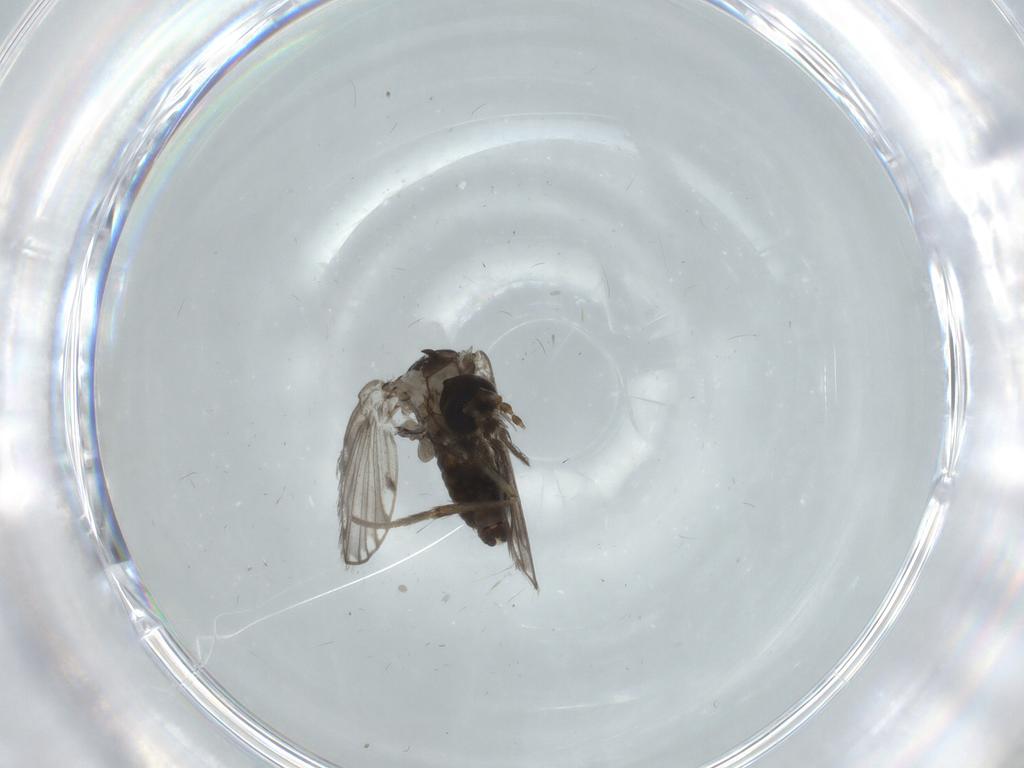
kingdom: Animalia
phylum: Arthropoda
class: Insecta
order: Diptera
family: Psychodidae
